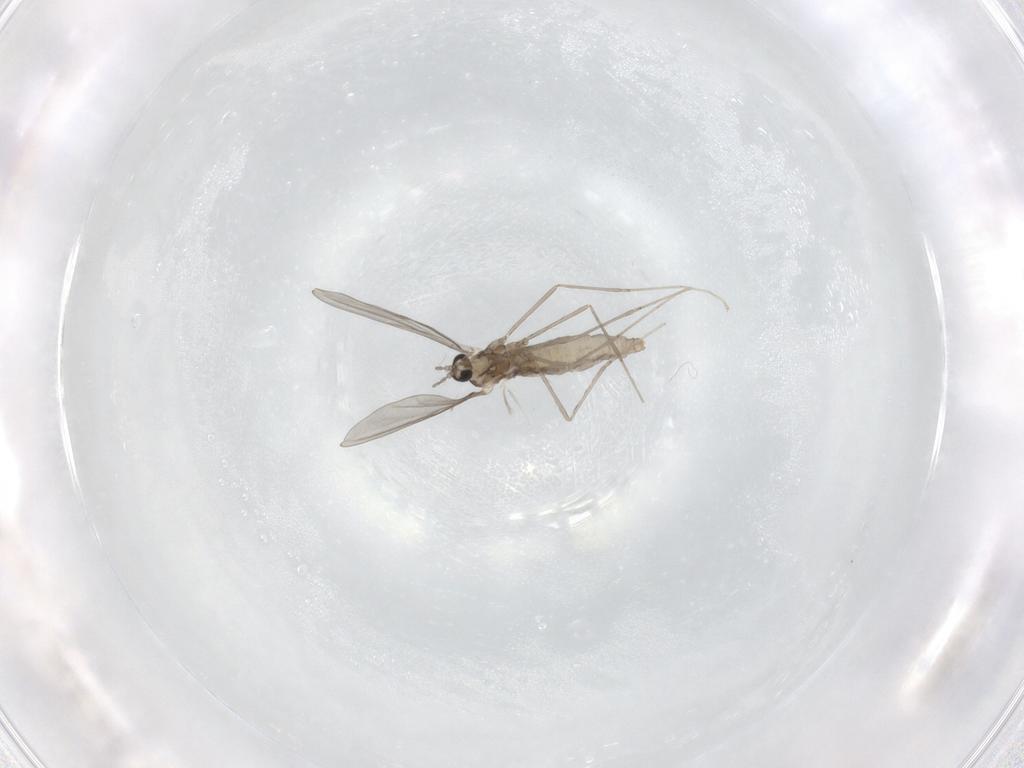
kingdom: Animalia
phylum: Arthropoda
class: Insecta
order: Diptera
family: Cecidomyiidae
